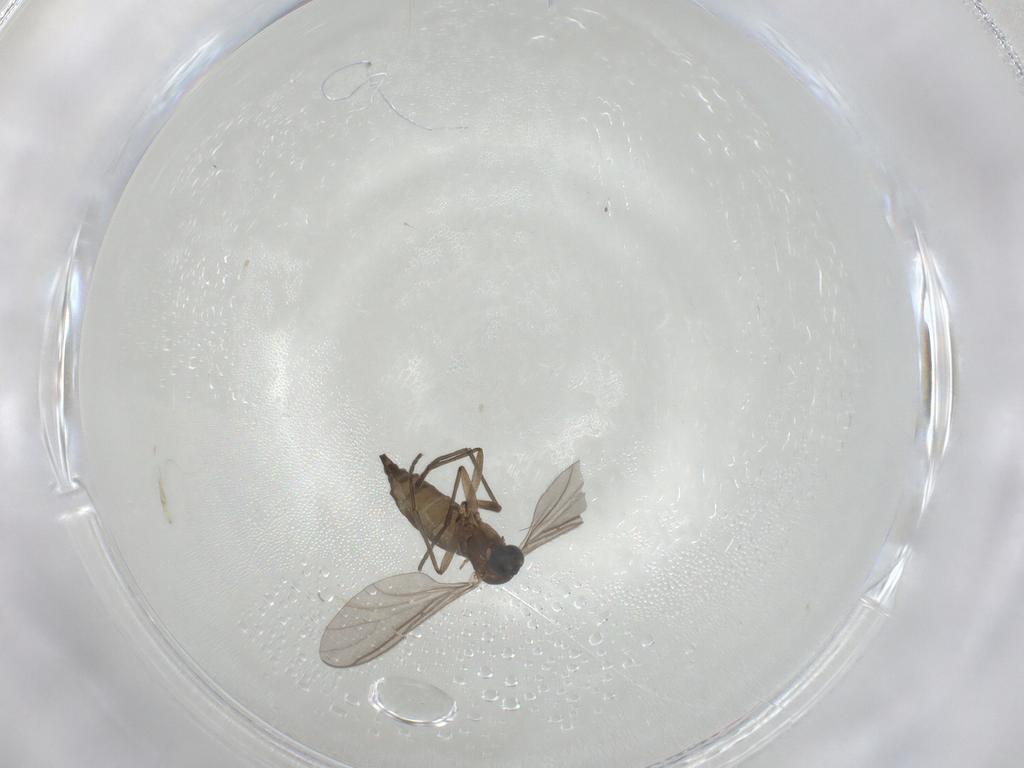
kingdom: Animalia
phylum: Arthropoda
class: Insecta
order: Diptera
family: Sciaridae
